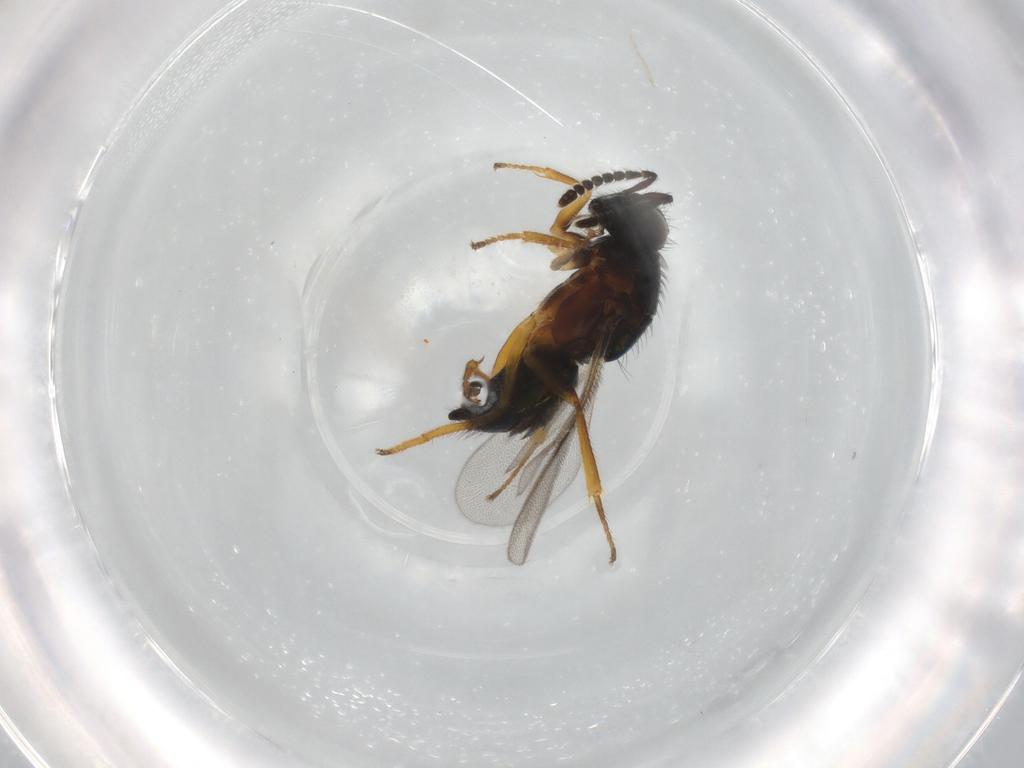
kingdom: Animalia
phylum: Arthropoda
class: Insecta
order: Hymenoptera
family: Encyrtidae
